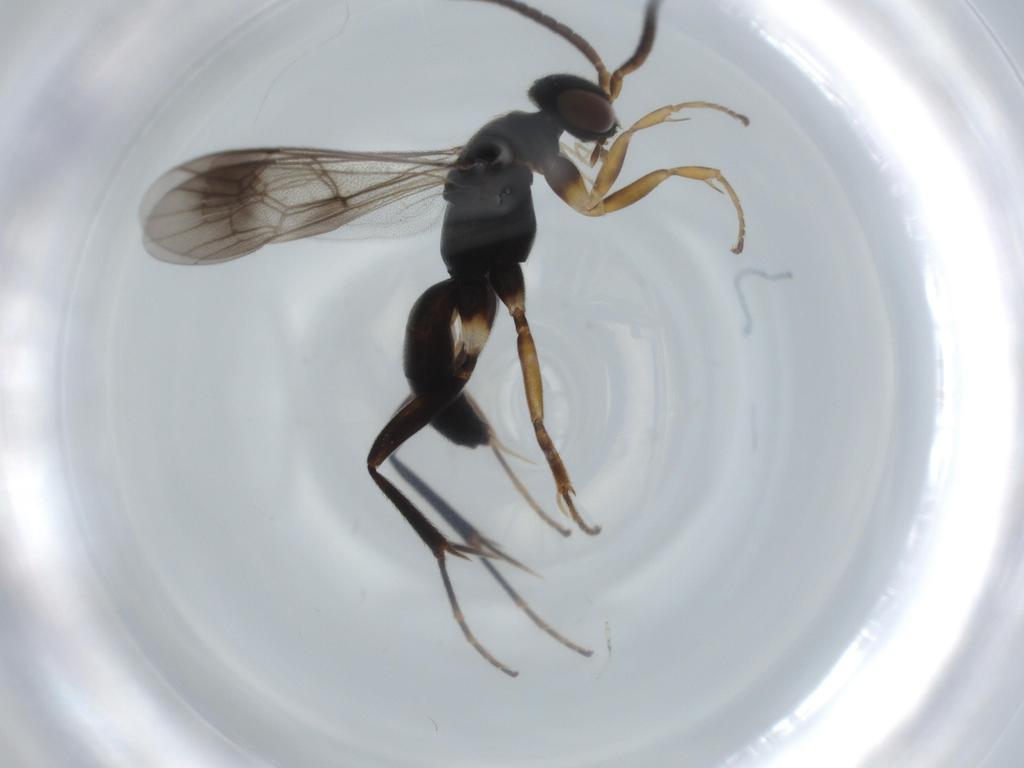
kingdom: Animalia
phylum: Arthropoda
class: Insecta
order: Hymenoptera
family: Pompilidae
